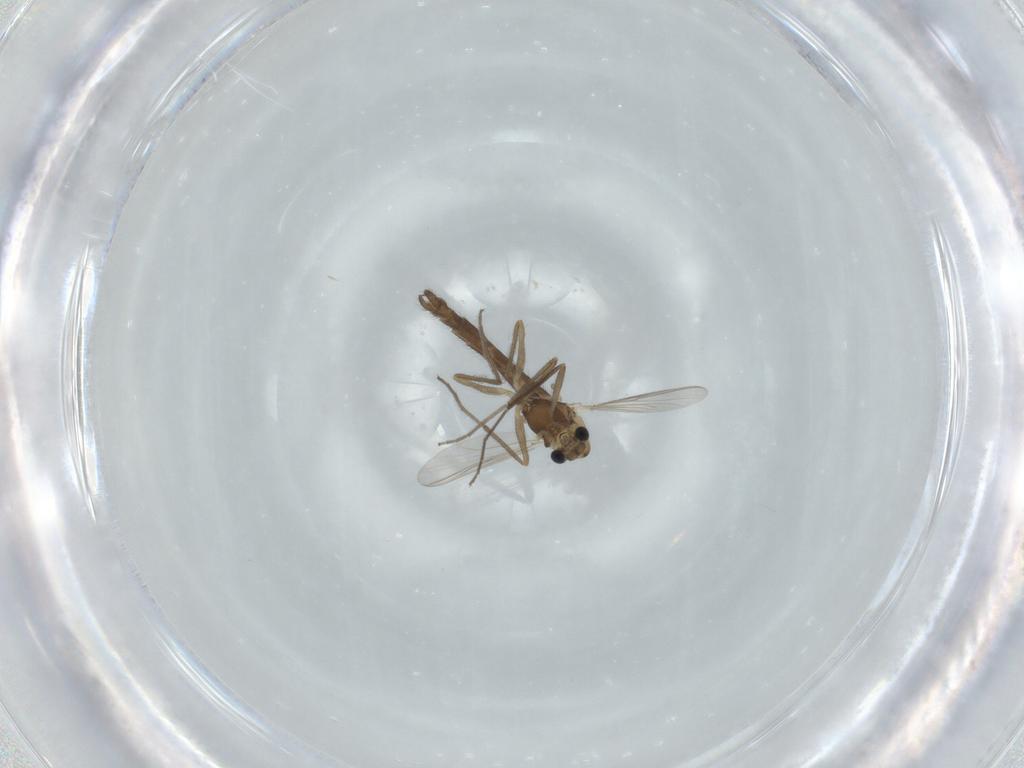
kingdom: Animalia
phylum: Arthropoda
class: Insecta
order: Diptera
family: Chironomidae
